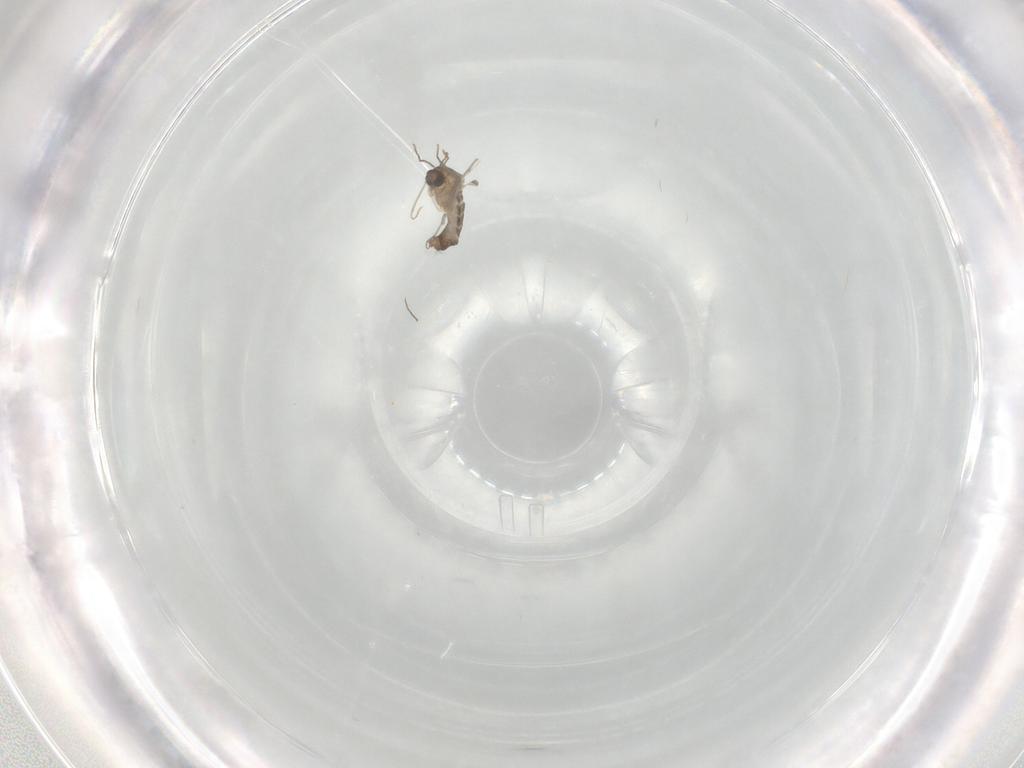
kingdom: Animalia
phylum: Arthropoda
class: Insecta
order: Diptera
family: Chironomidae
